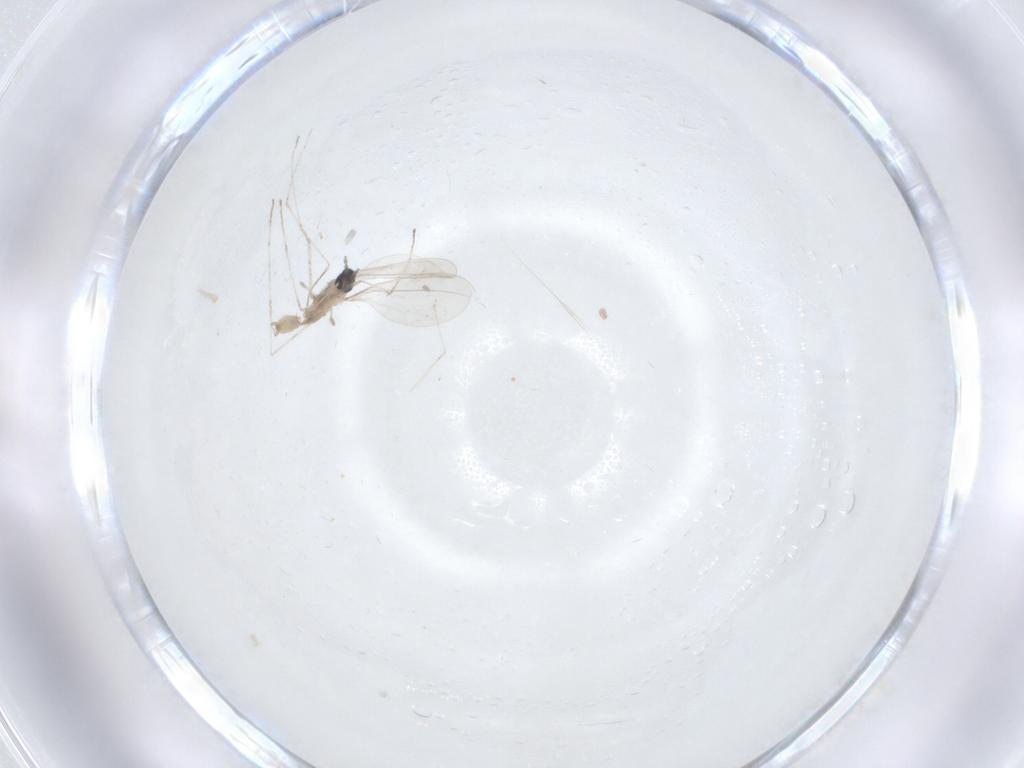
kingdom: Animalia
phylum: Arthropoda
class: Insecta
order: Diptera
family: Cecidomyiidae
